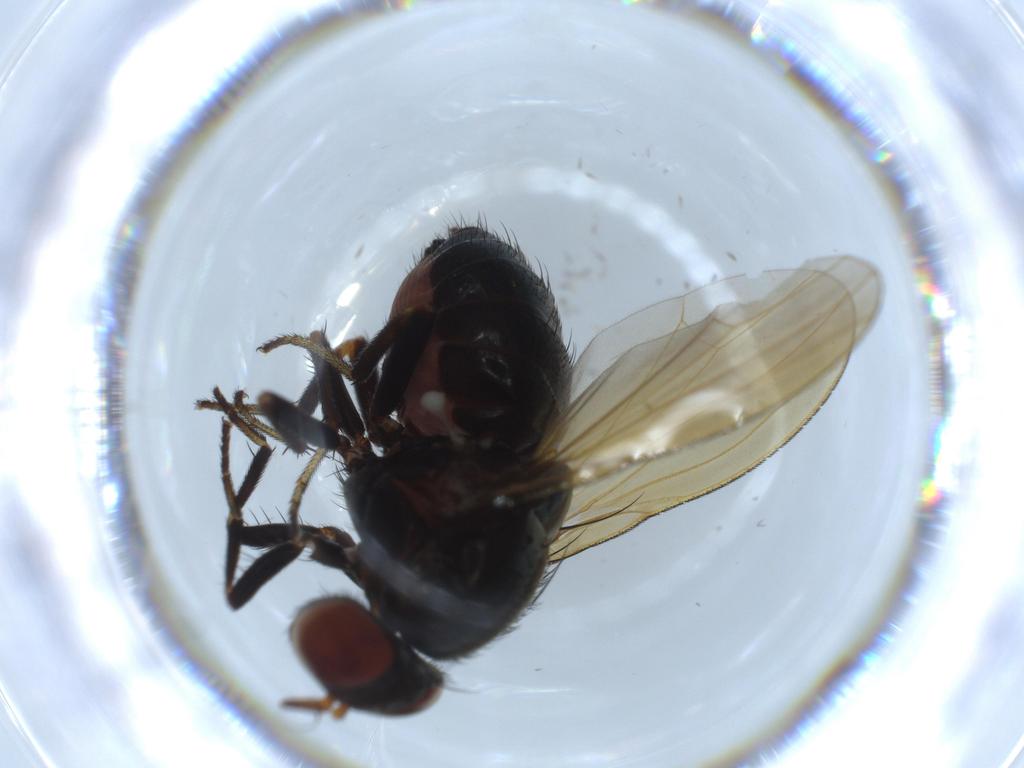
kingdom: Animalia
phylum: Arthropoda
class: Insecta
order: Diptera
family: Lauxaniidae
